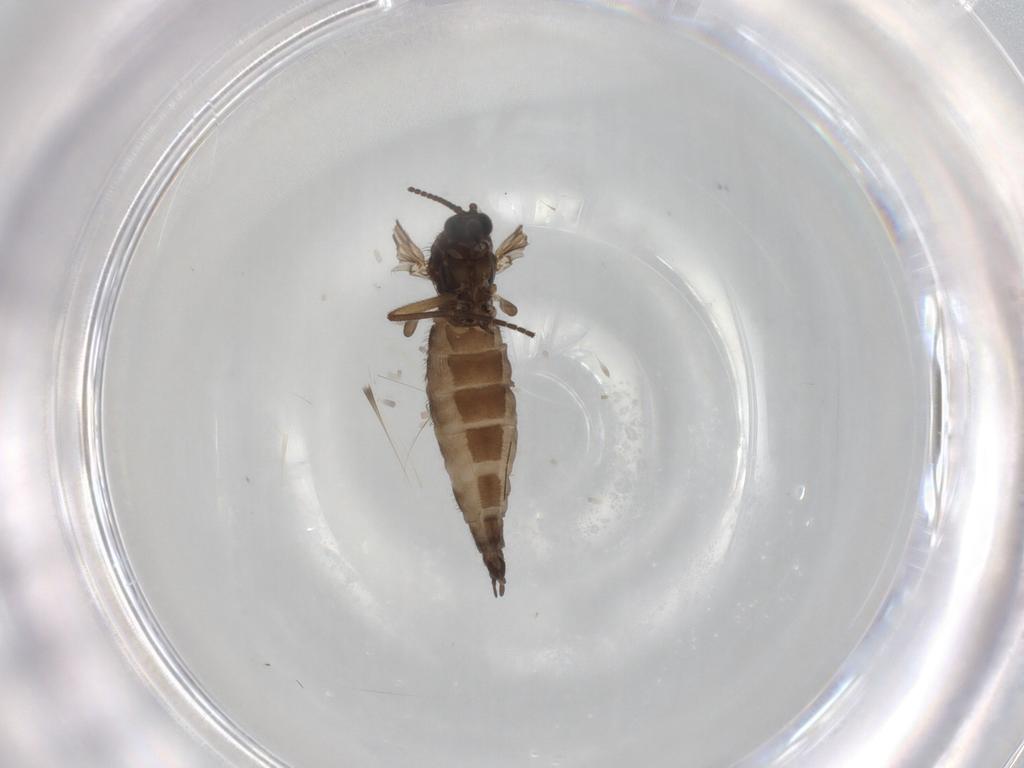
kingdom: Animalia
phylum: Arthropoda
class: Insecta
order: Diptera
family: Sciaridae
